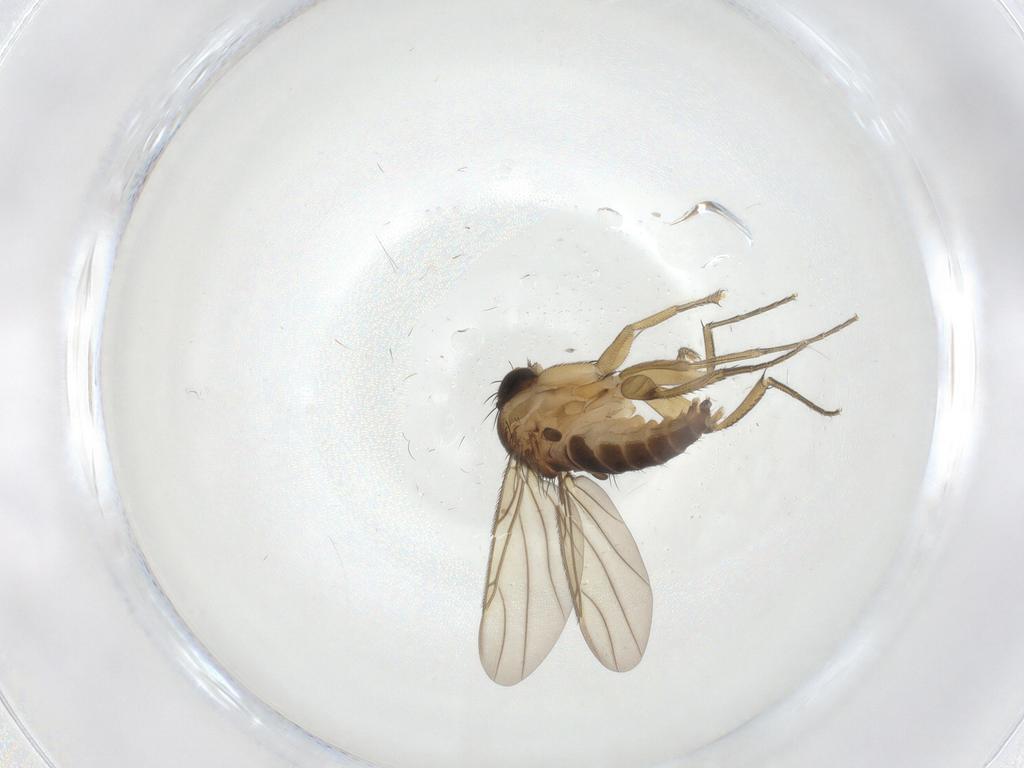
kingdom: Animalia
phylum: Arthropoda
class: Insecta
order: Diptera
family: Phoridae
